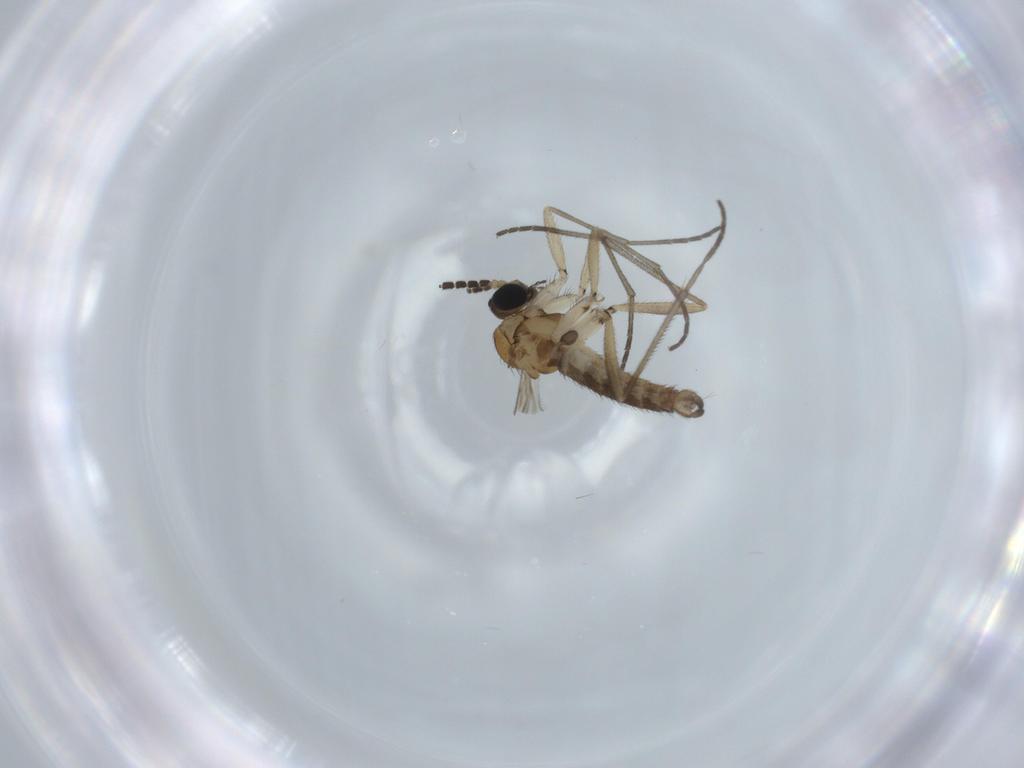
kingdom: Animalia
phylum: Arthropoda
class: Insecta
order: Diptera
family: Sciaridae
